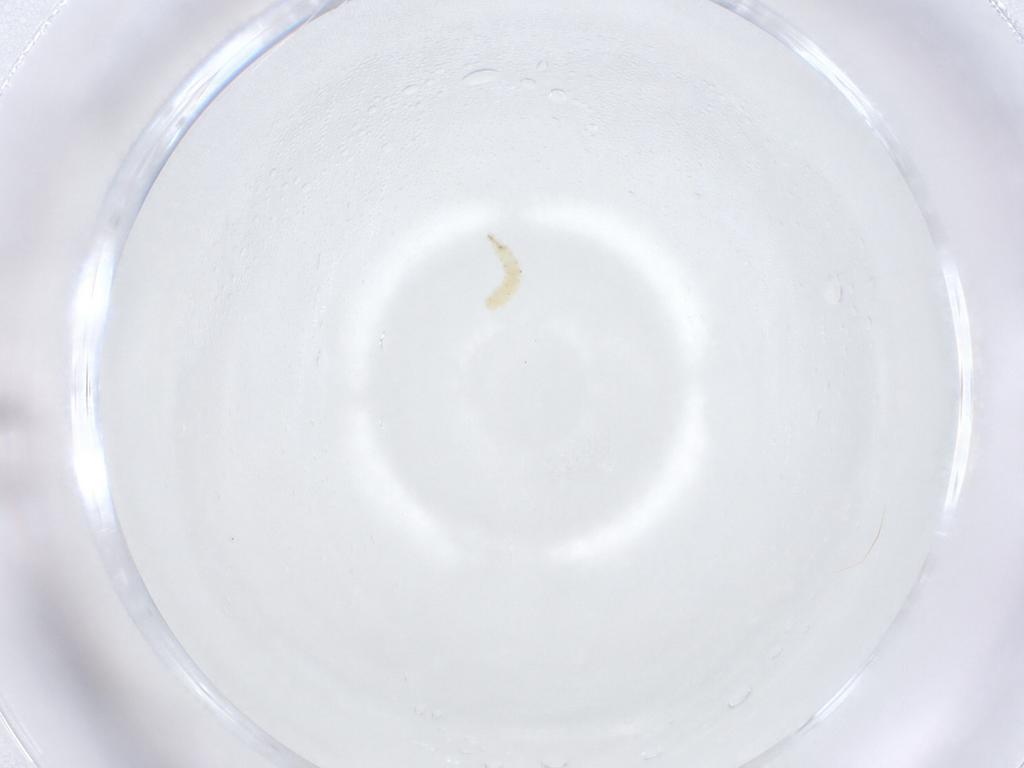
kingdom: Animalia
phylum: Arthropoda
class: Insecta
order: Diptera
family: Sarcophagidae
